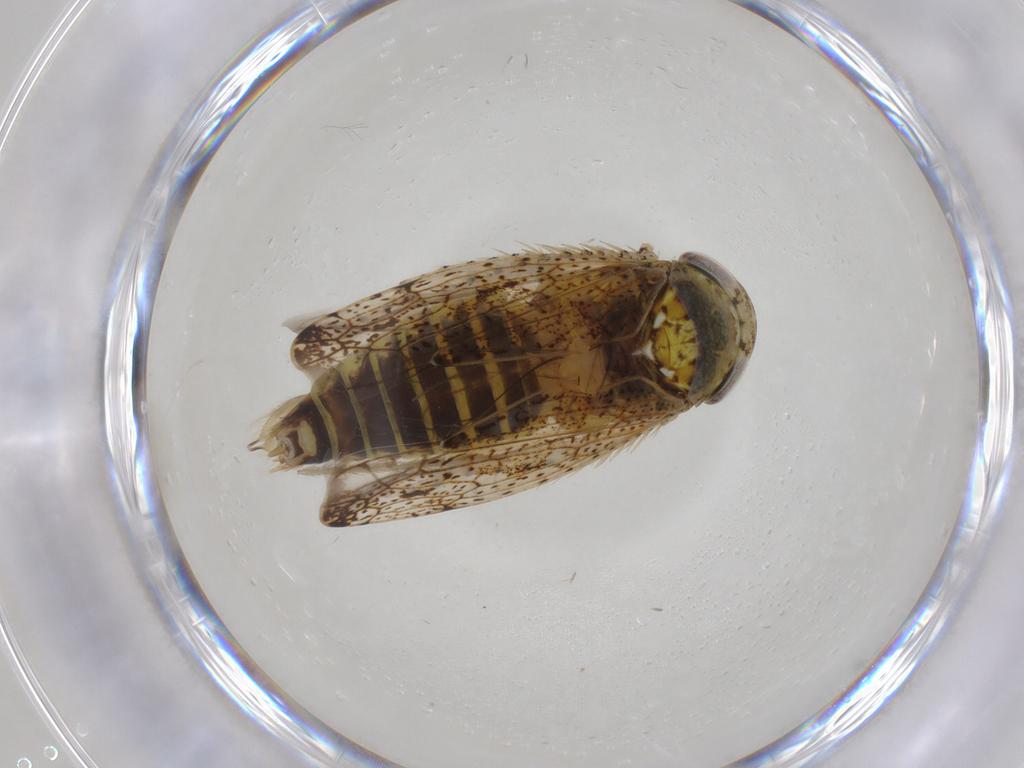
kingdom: Animalia
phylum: Arthropoda
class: Insecta
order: Hemiptera
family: Cicadellidae
